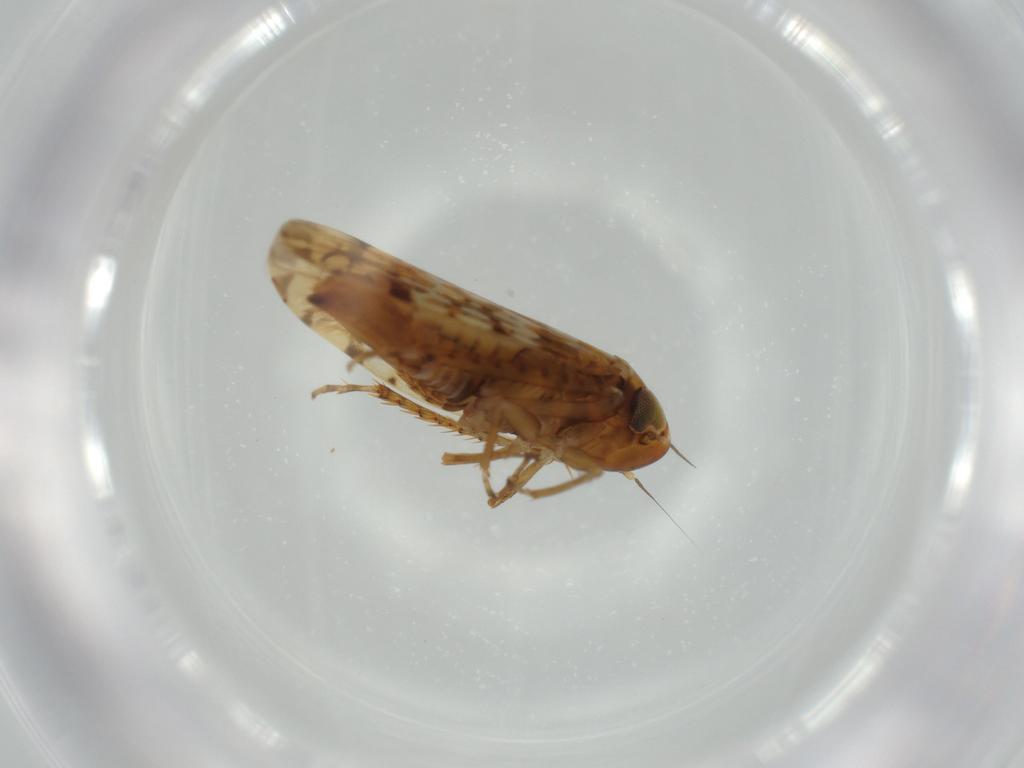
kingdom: Animalia
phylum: Arthropoda
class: Insecta
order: Hemiptera
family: Cicadellidae
